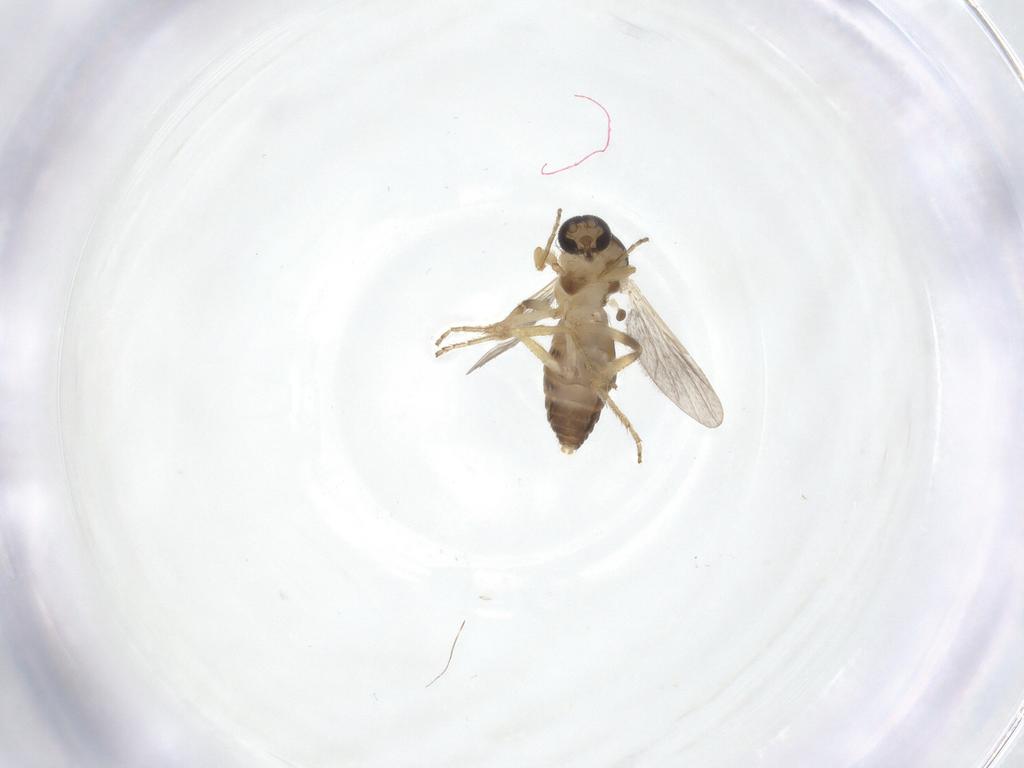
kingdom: Animalia
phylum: Arthropoda
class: Insecta
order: Diptera
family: Ceratopogonidae
